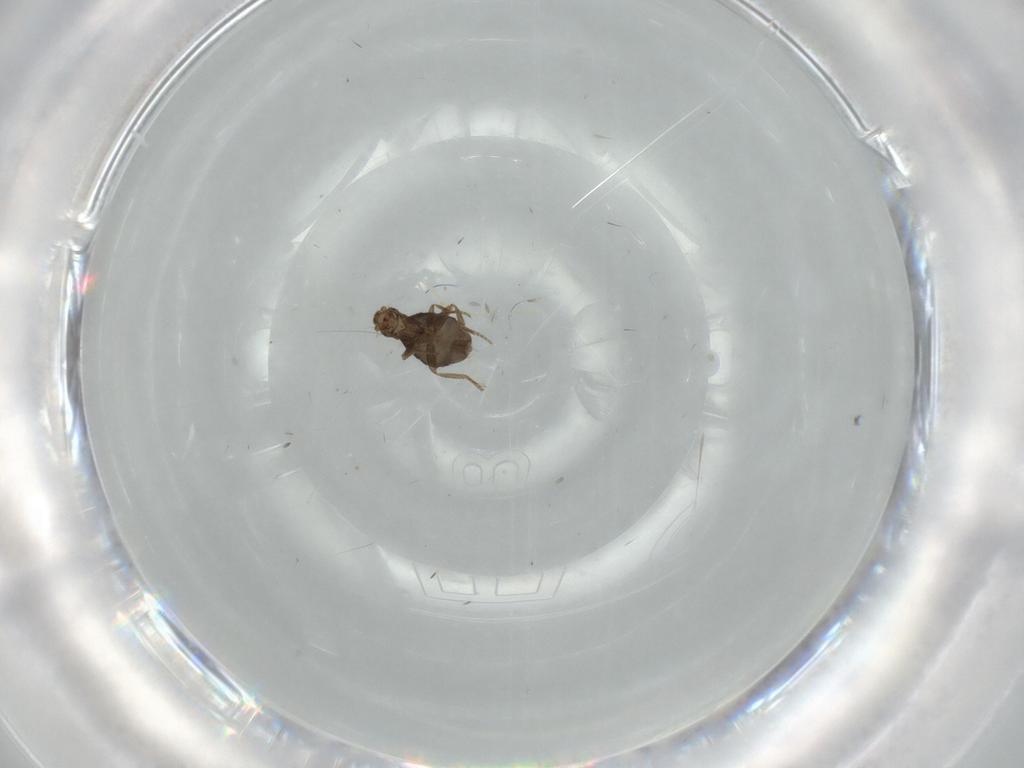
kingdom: Animalia
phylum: Arthropoda
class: Insecta
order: Diptera
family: Phoridae
